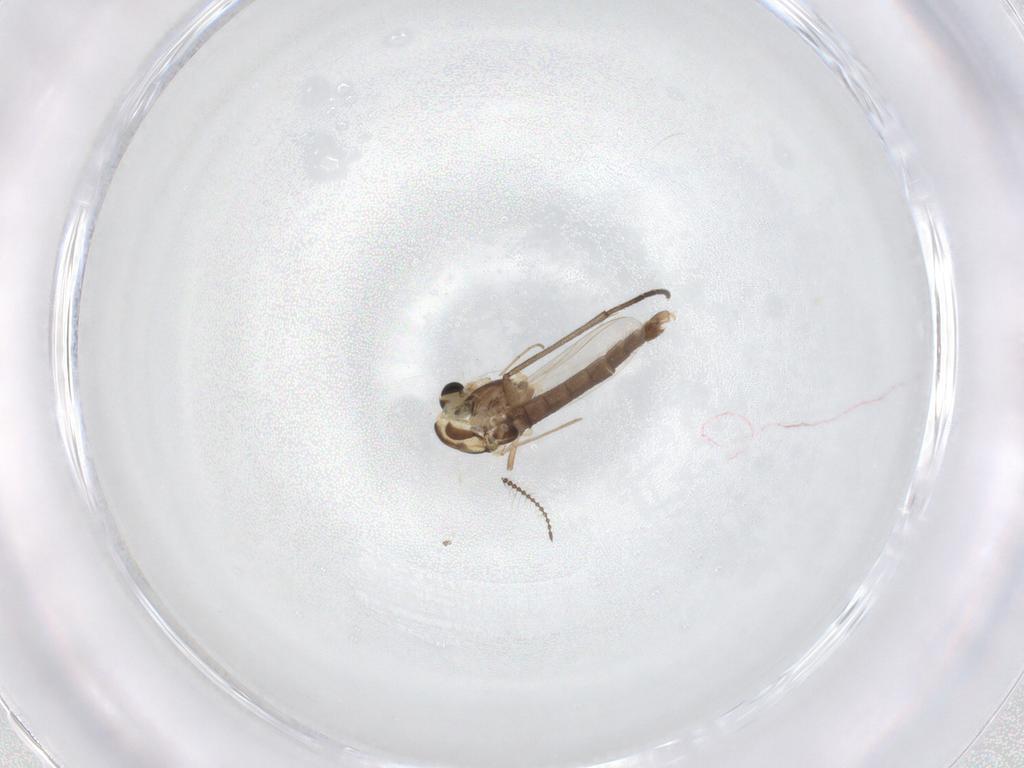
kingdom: Animalia
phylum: Arthropoda
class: Insecta
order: Diptera
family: Chironomidae
